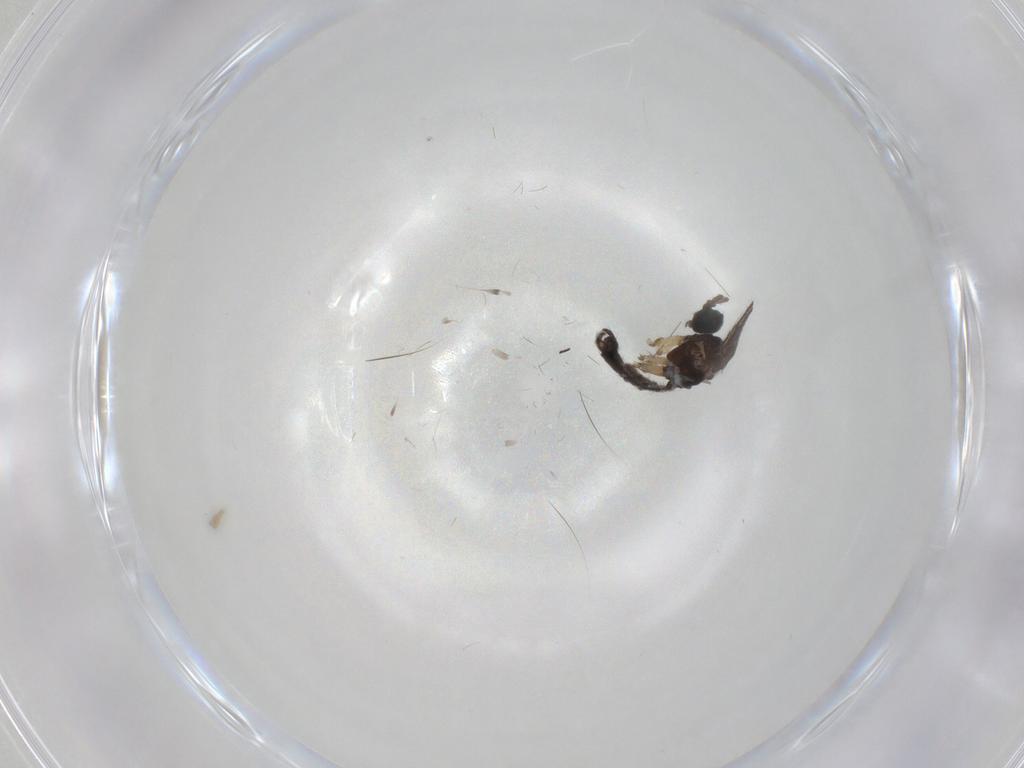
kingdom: Animalia
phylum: Arthropoda
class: Insecta
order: Diptera
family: Sciaridae
